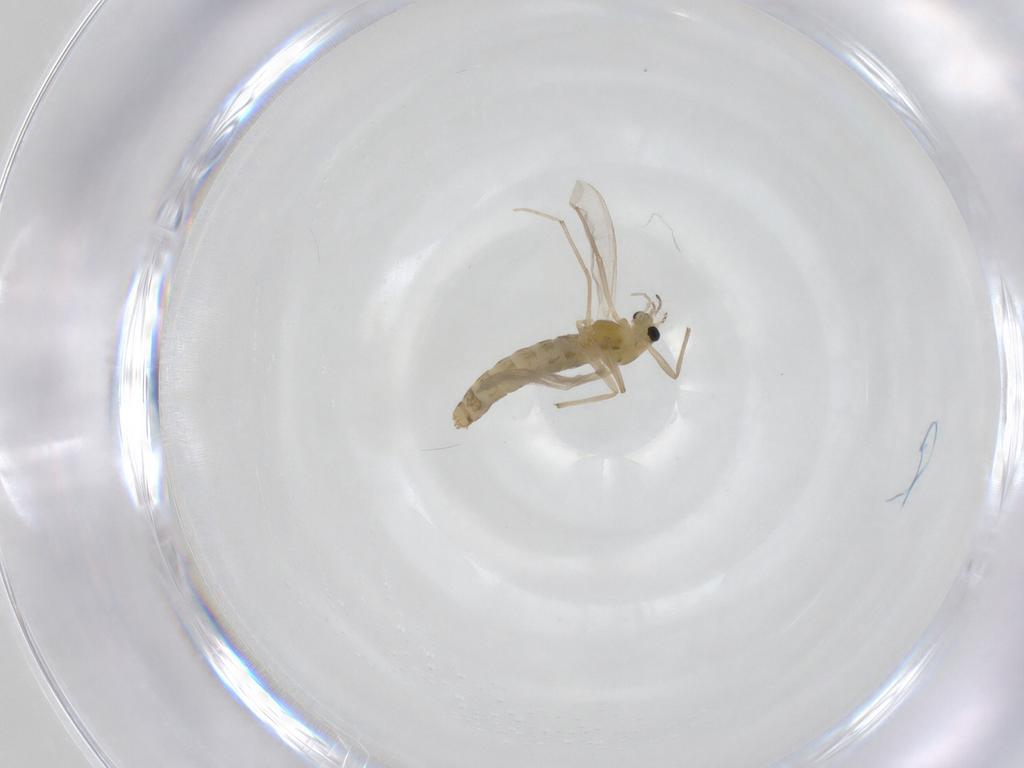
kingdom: Animalia
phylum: Arthropoda
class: Insecta
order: Diptera
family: Chironomidae
